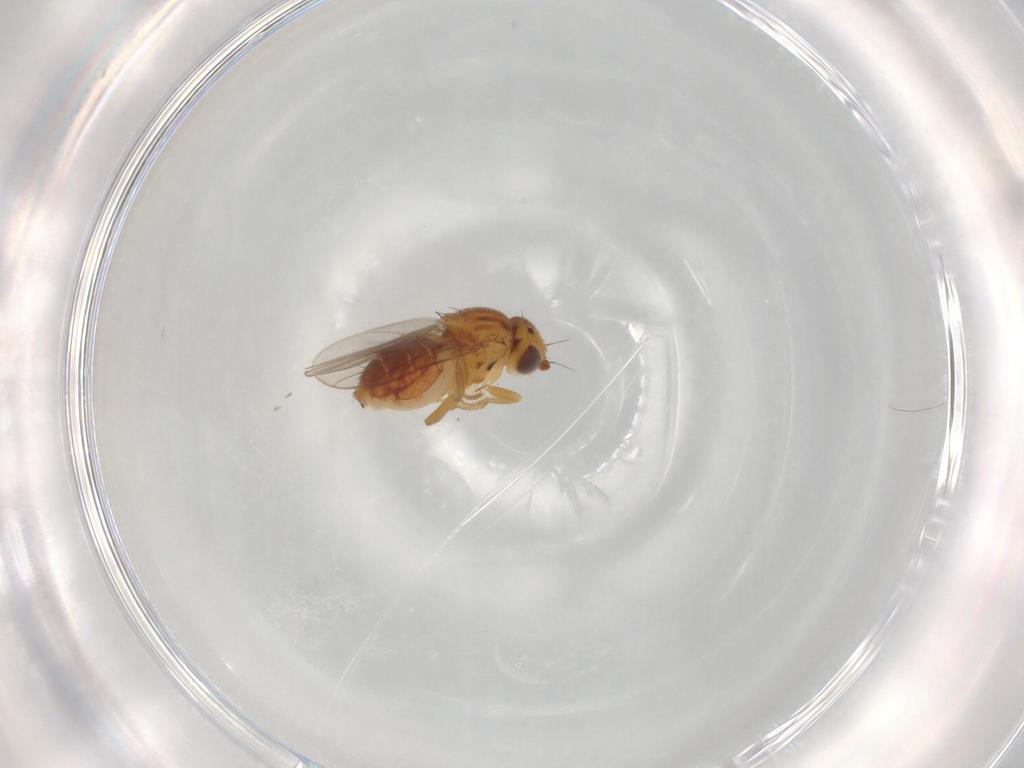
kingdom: Animalia
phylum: Arthropoda
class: Insecta
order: Diptera
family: Chloropidae
